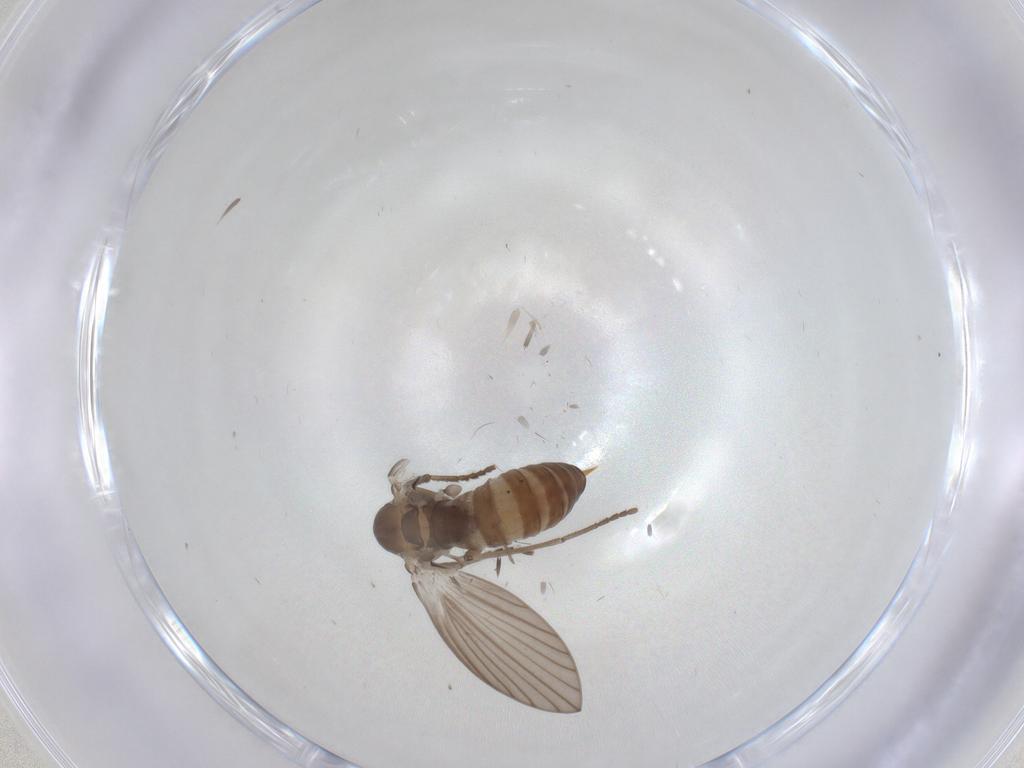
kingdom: Animalia
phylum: Arthropoda
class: Insecta
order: Diptera
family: Psychodidae
